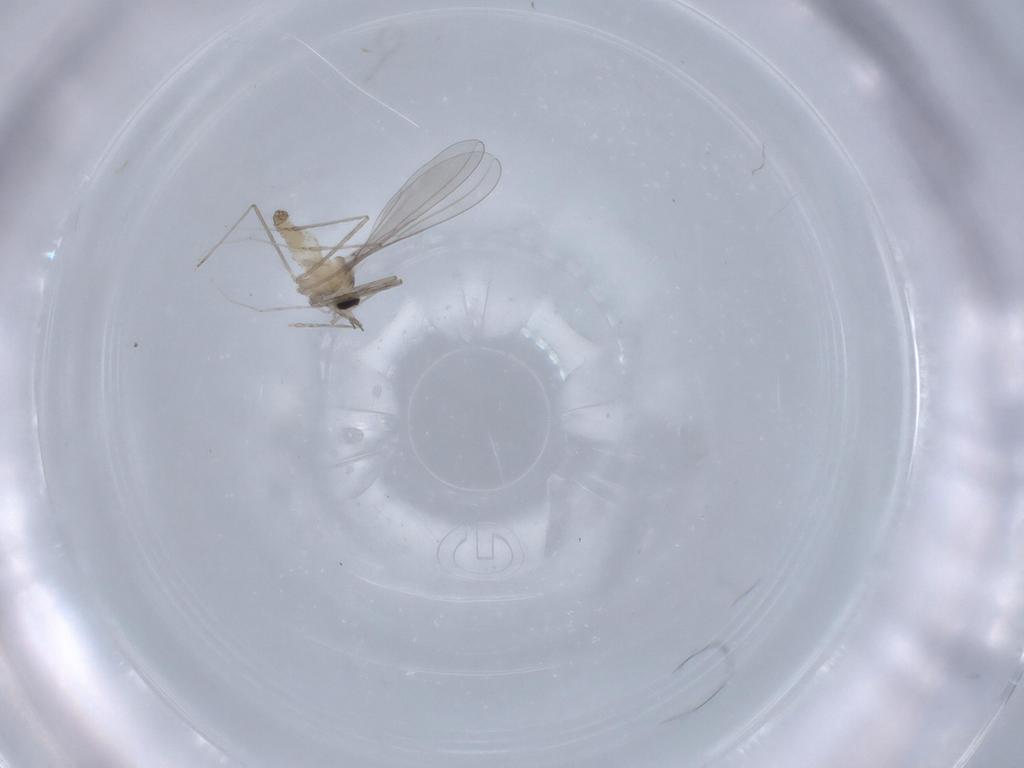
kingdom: Animalia
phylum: Arthropoda
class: Insecta
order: Diptera
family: Cecidomyiidae
